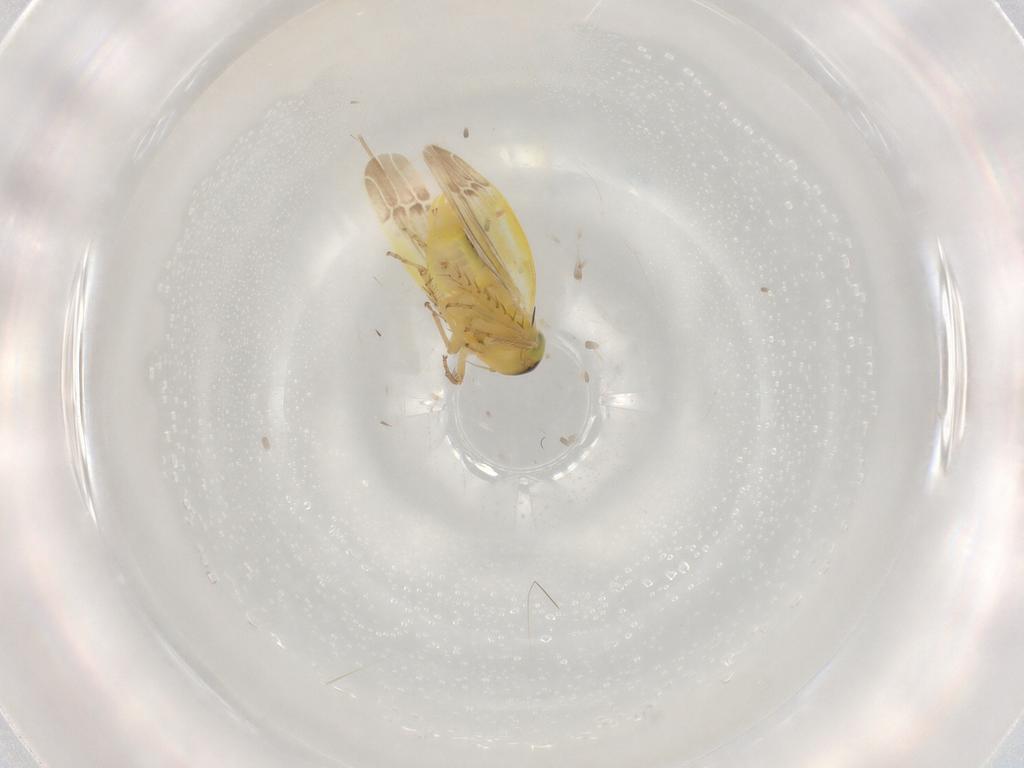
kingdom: Animalia
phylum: Arthropoda
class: Insecta
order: Hemiptera
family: Cicadellidae
